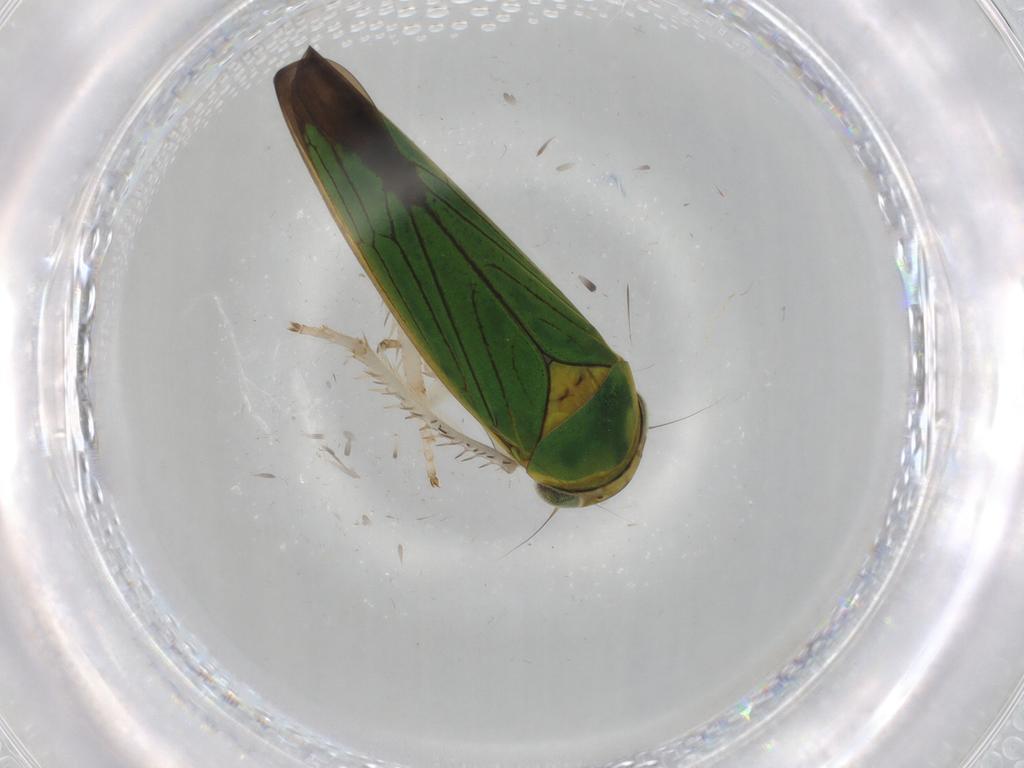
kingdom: Animalia
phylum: Arthropoda
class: Insecta
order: Hemiptera
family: Cicadellidae
